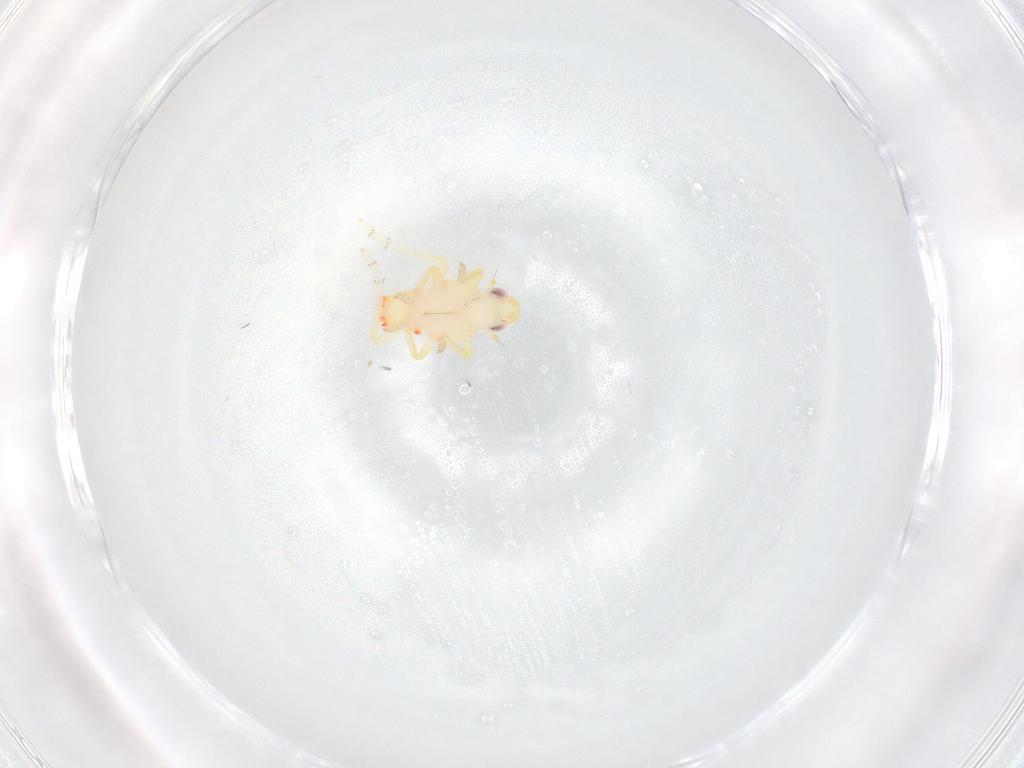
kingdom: Animalia
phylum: Arthropoda
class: Insecta
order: Hemiptera
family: Tropiduchidae
